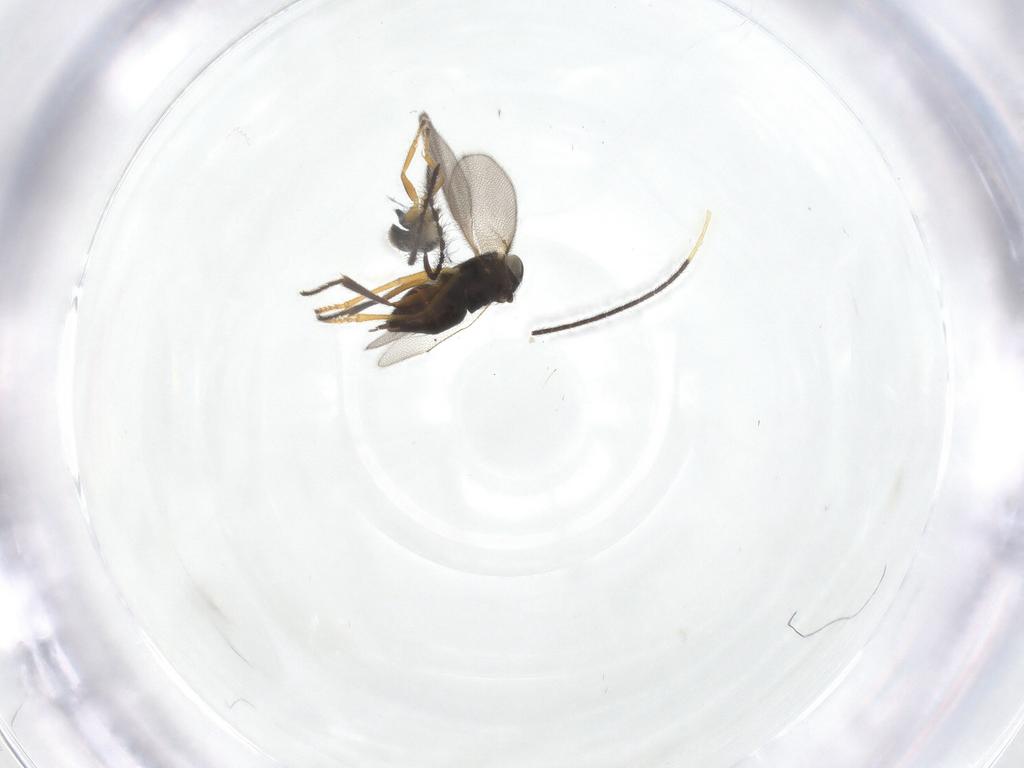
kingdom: Animalia
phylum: Arthropoda
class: Insecta
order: Hymenoptera
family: Encyrtidae
